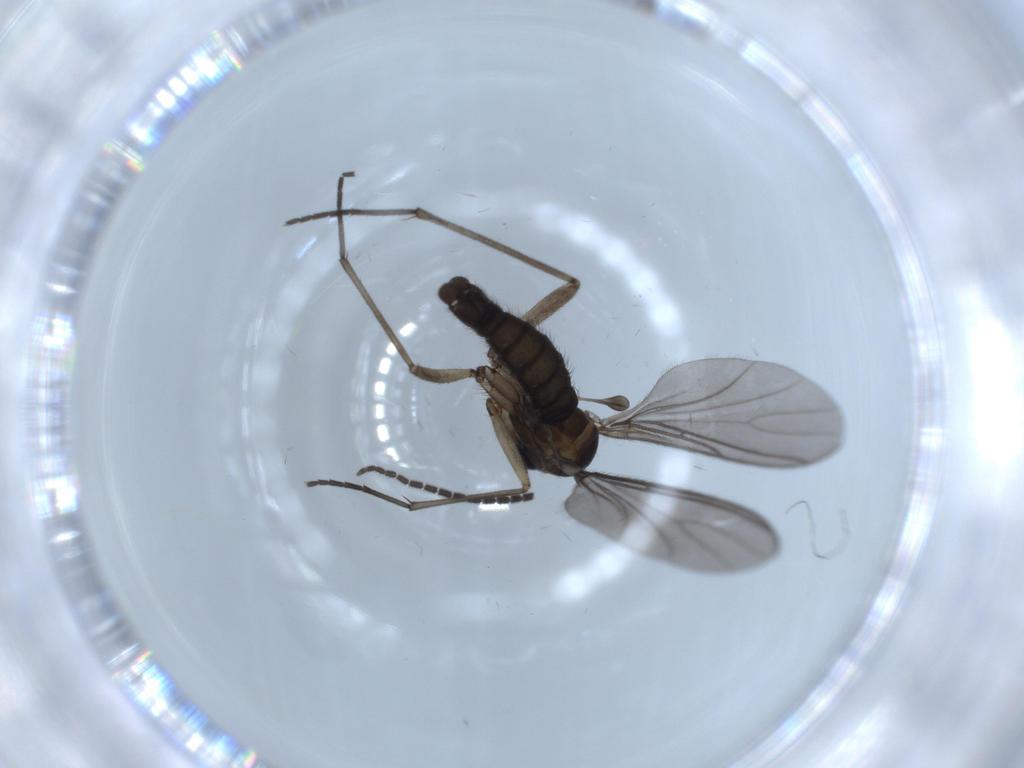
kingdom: Animalia
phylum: Arthropoda
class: Insecta
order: Diptera
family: Sciaridae
